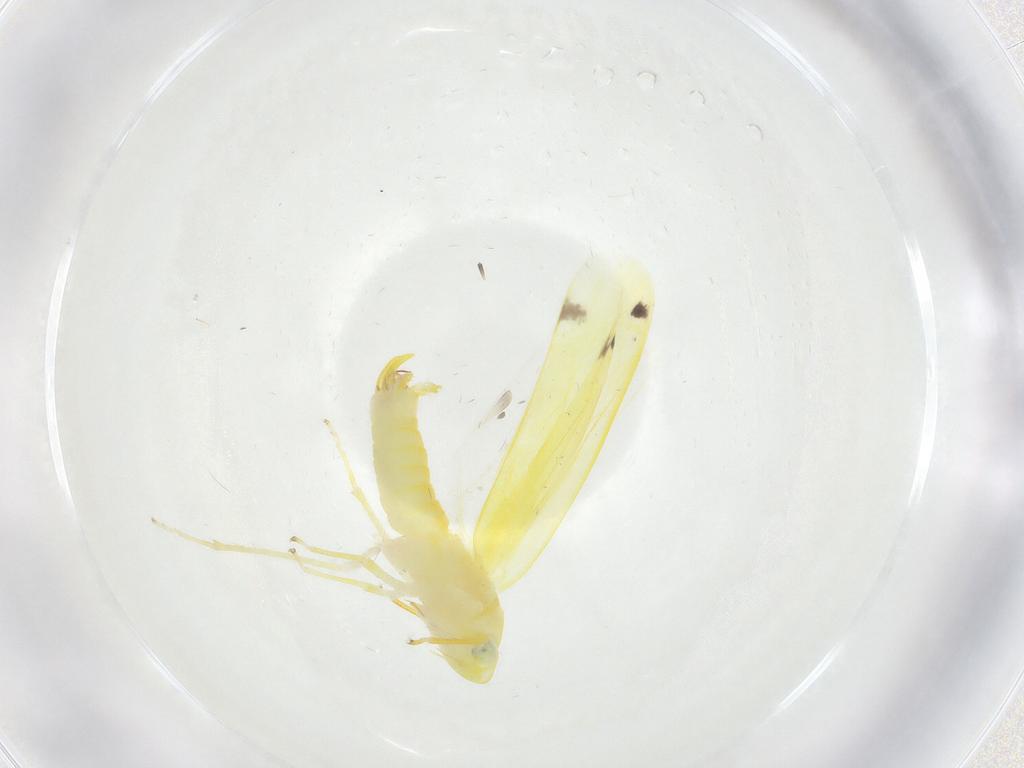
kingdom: Animalia
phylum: Arthropoda
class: Insecta
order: Hemiptera
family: Cicadellidae
